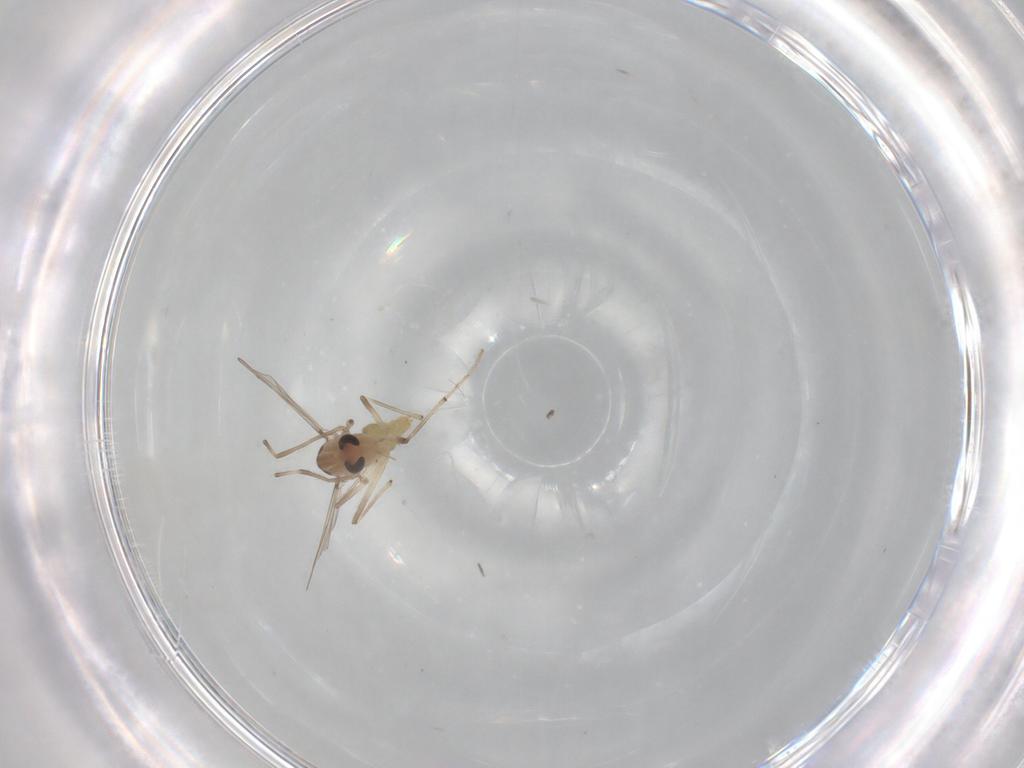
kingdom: Animalia
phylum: Arthropoda
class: Insecta
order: Diptera
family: Chironomidae
